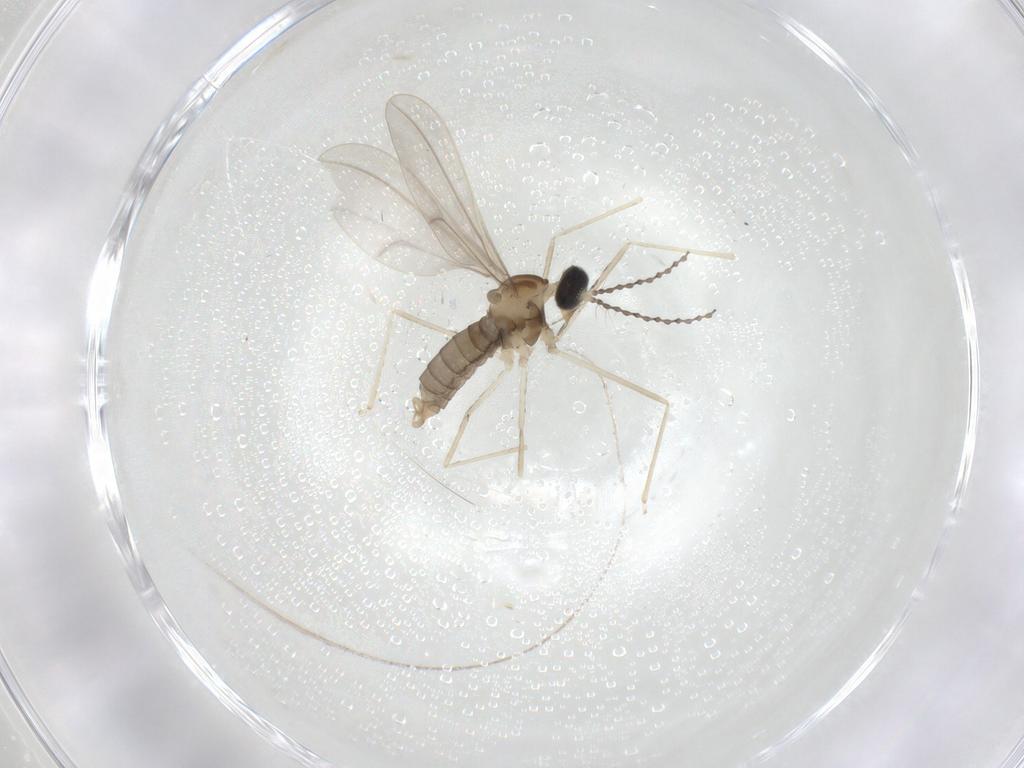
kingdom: Animalia
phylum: Arthropoda
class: Insecta
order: Diptera
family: Cecidomyiidae
